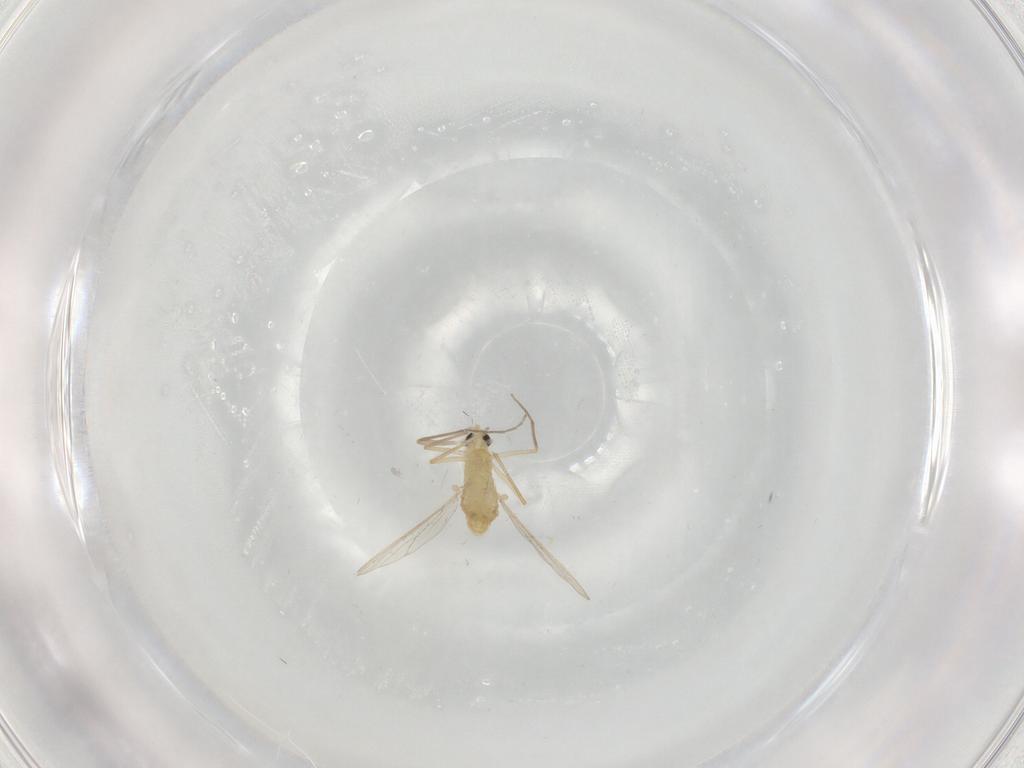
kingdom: Animalia
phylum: Arthropoda
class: Insecta
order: Diptera
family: Chironomidae
